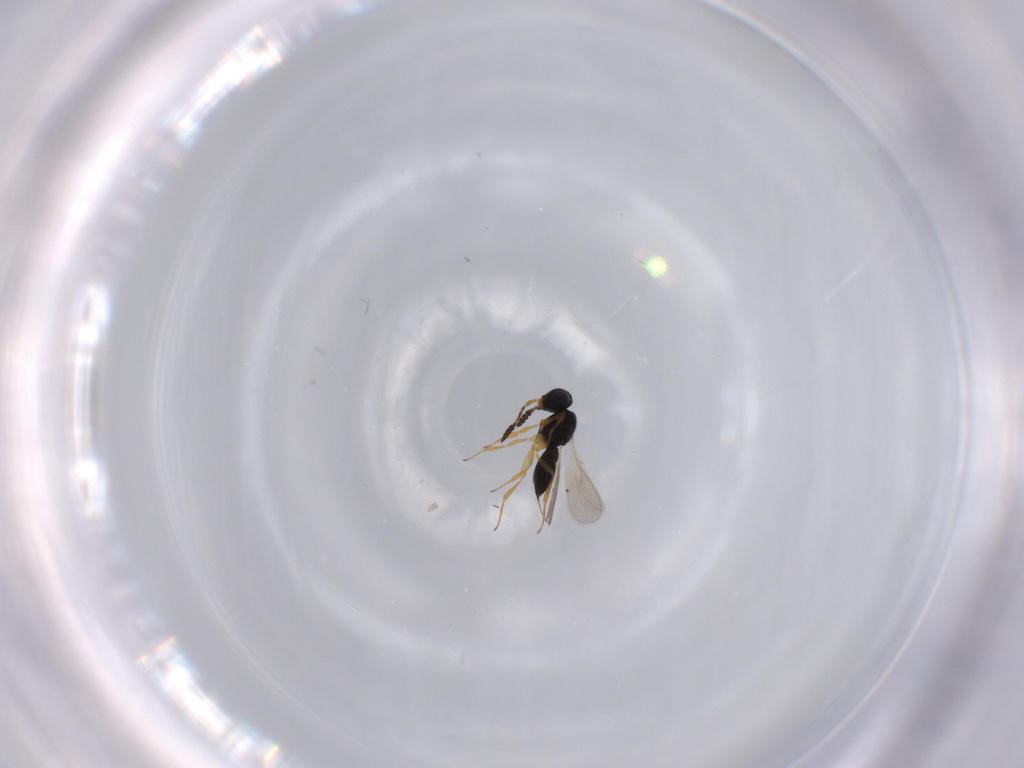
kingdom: Animalia
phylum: Arthropoda
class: Insecta
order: Hymenoptera
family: Scelionidae
